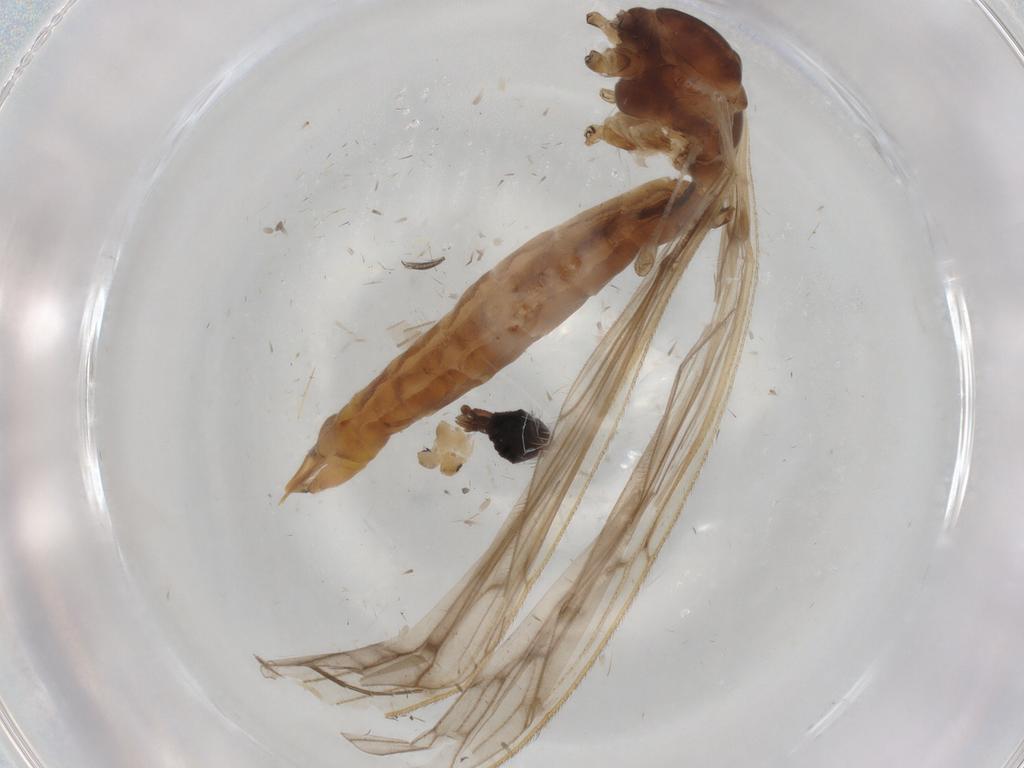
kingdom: Animalia
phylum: Arthropoda
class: Insecta
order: Diptera
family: Ceratopogonidae
